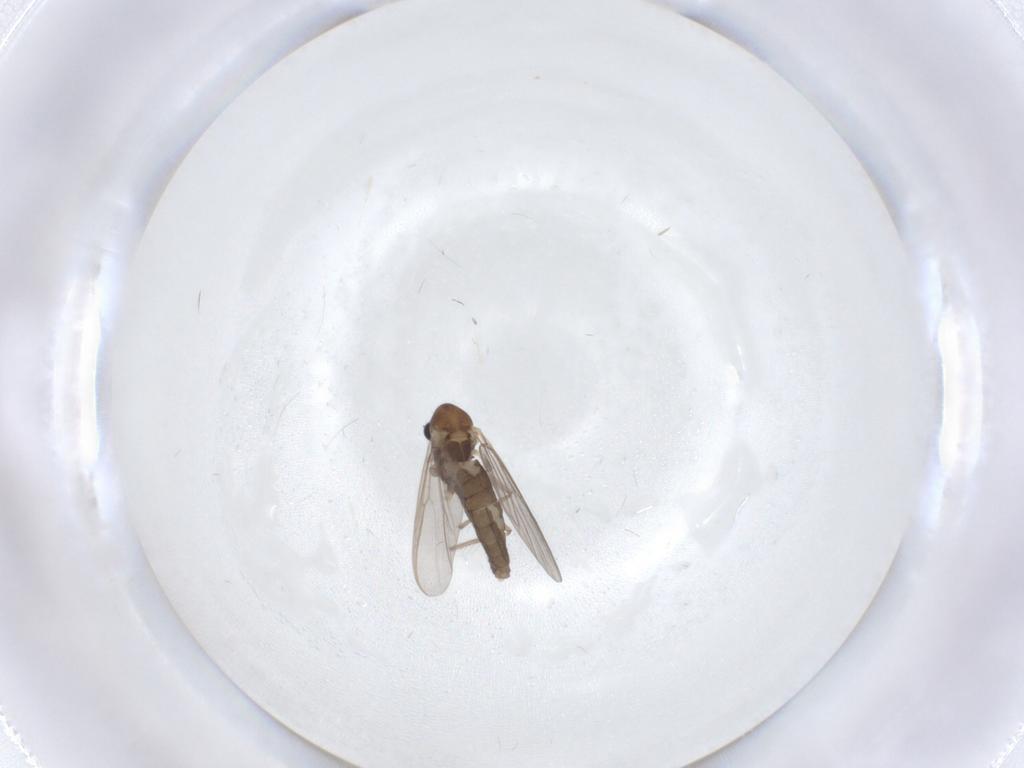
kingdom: Animalia
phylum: Arthropoda
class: Insecta
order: Diptera
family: Chironomidae
